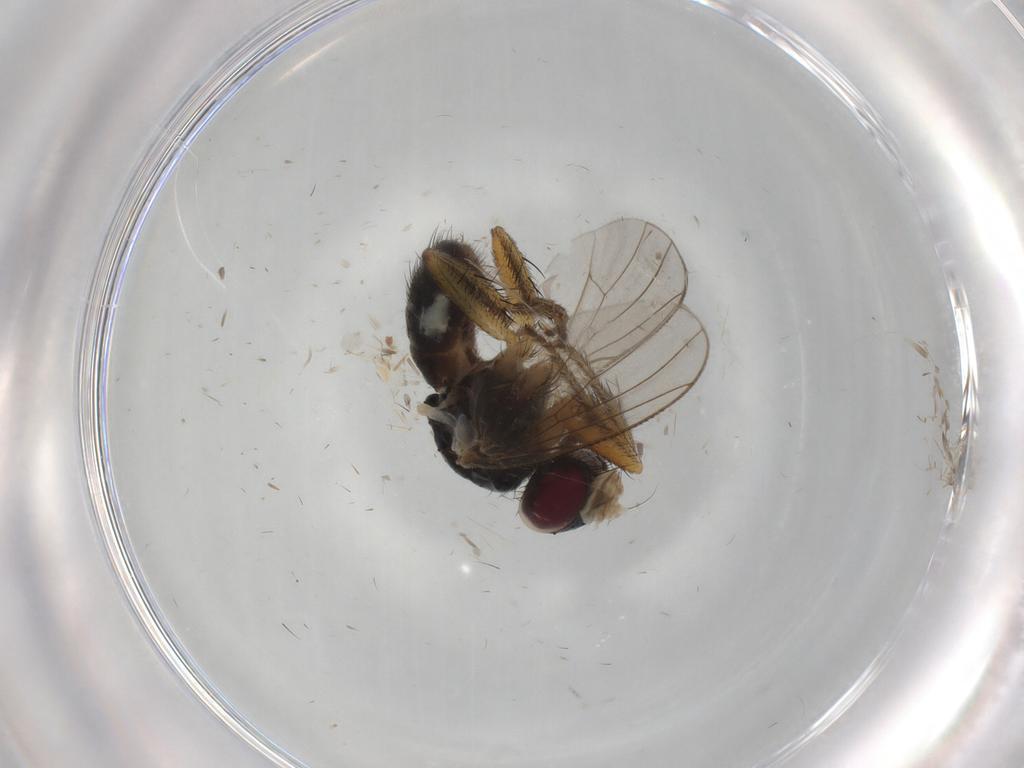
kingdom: Animalia
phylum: Arthropoda
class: Insecta
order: Diptera
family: Muscidae
